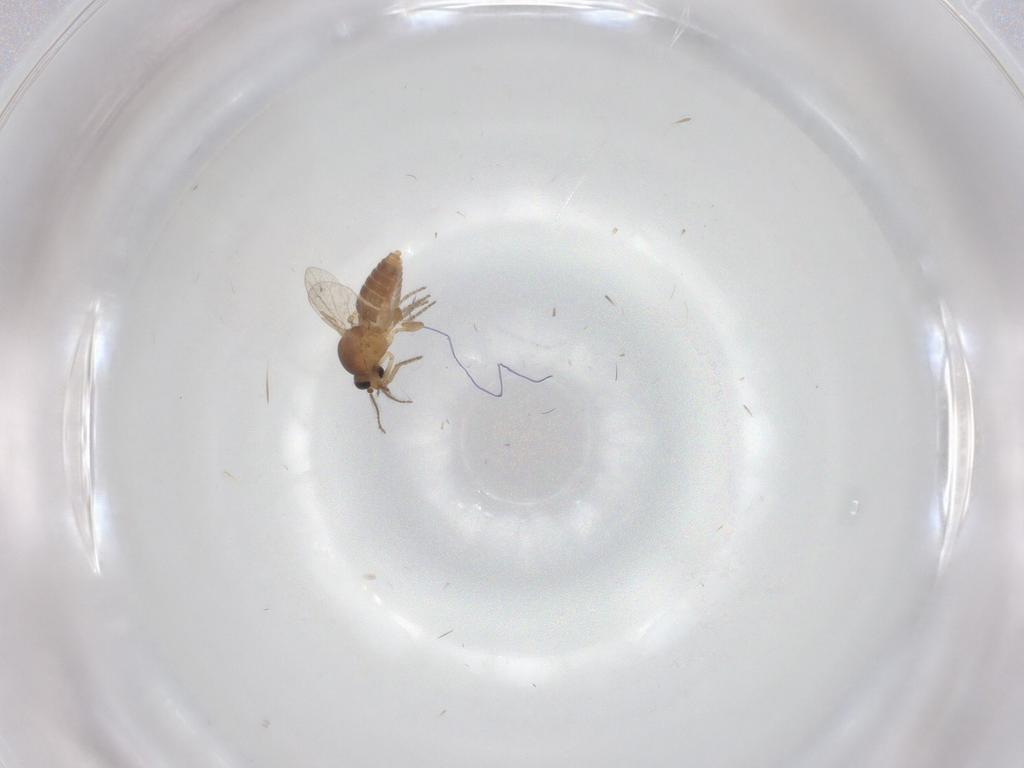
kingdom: Animalia
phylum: Arthropoda
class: Insecta
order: Diptera
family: Ceratopogonidae
